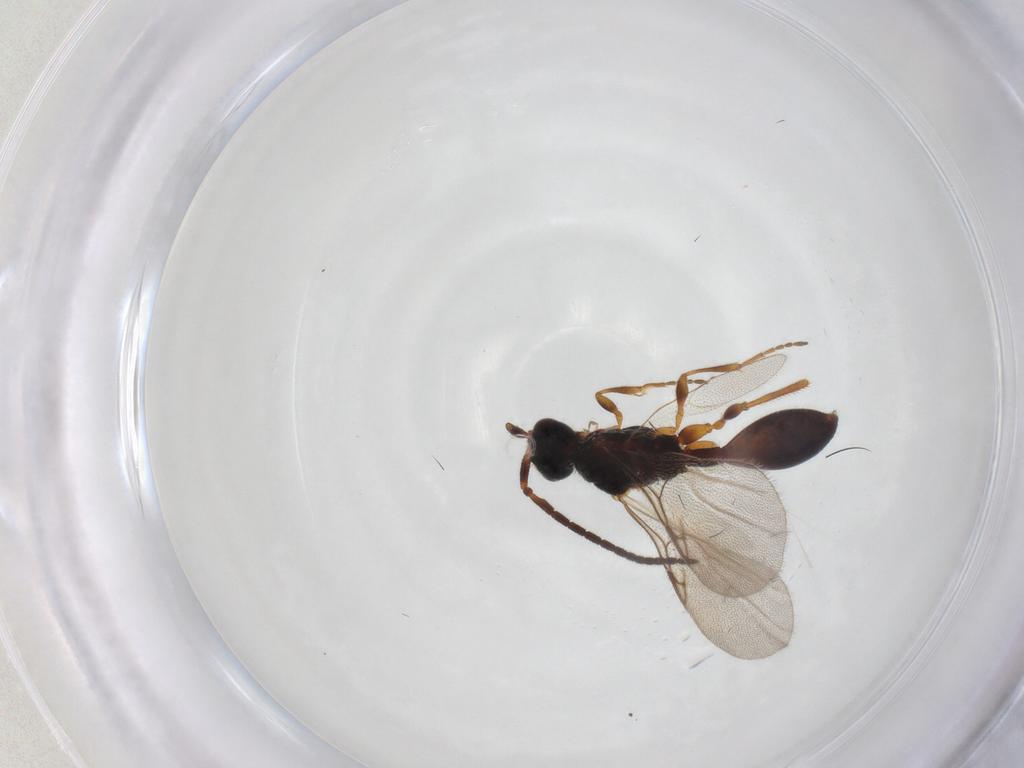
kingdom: Animalia
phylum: Arthropoda
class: Insecta
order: Hymenoptera
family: Diapriidae
